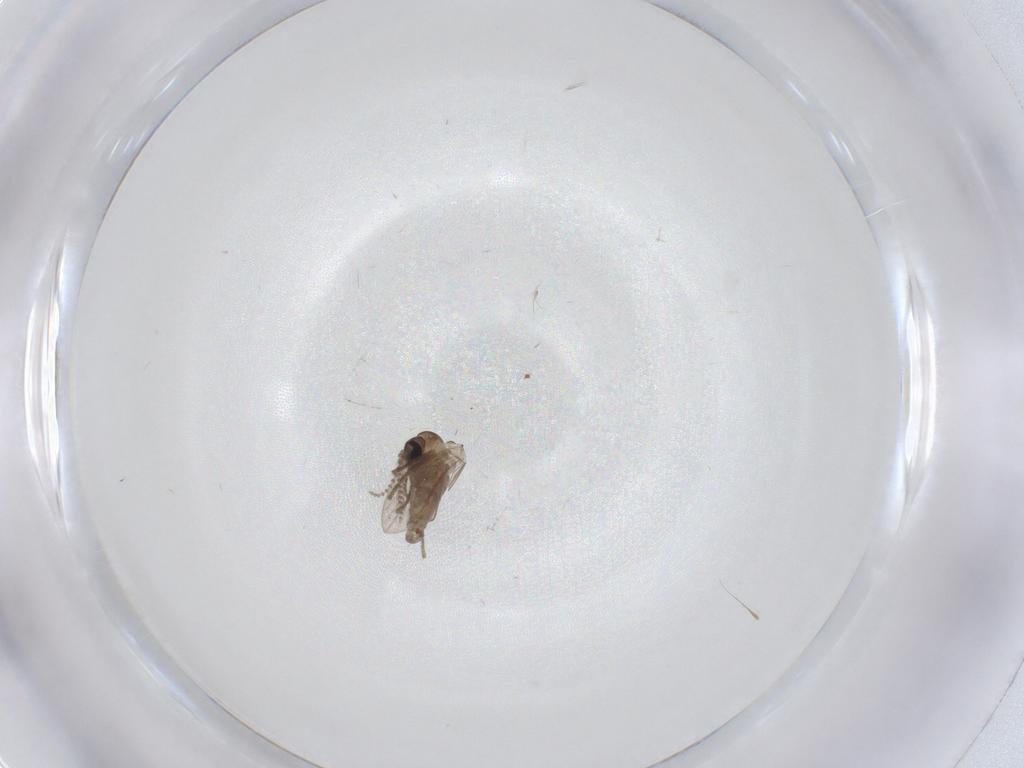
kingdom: Animalia
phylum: Arthropoda
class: Insecta
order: Diptera
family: Psychodidae
